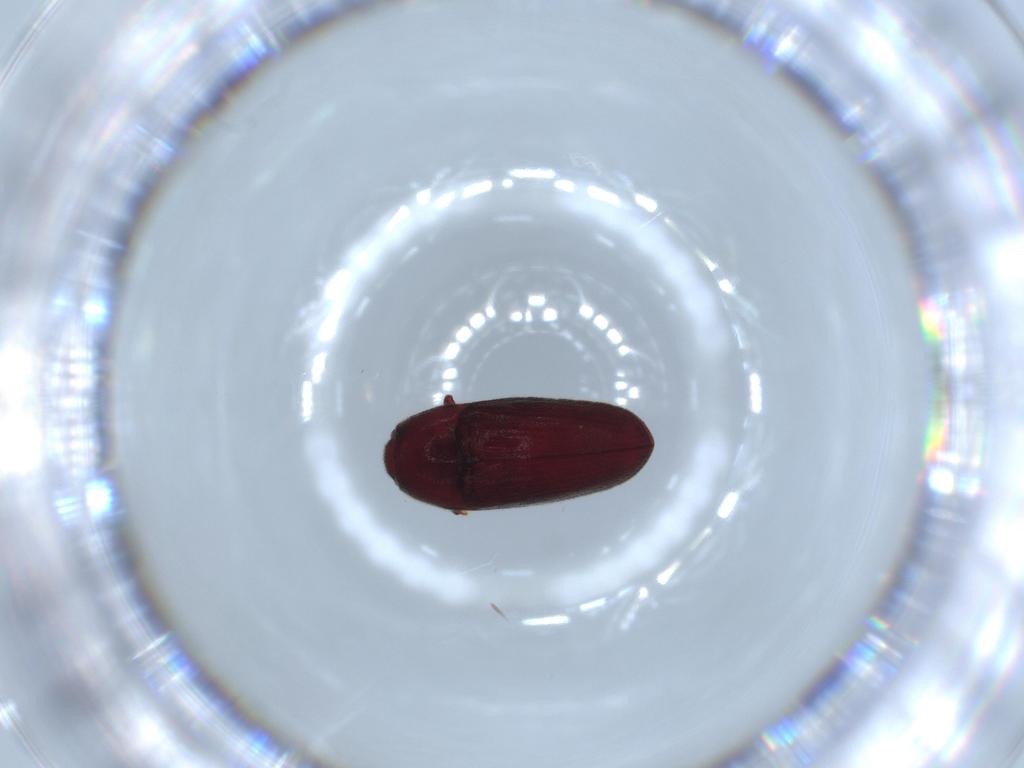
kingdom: Animalia
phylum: Arthropoda
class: Insecta
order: Coleoptera
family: Throscidae
